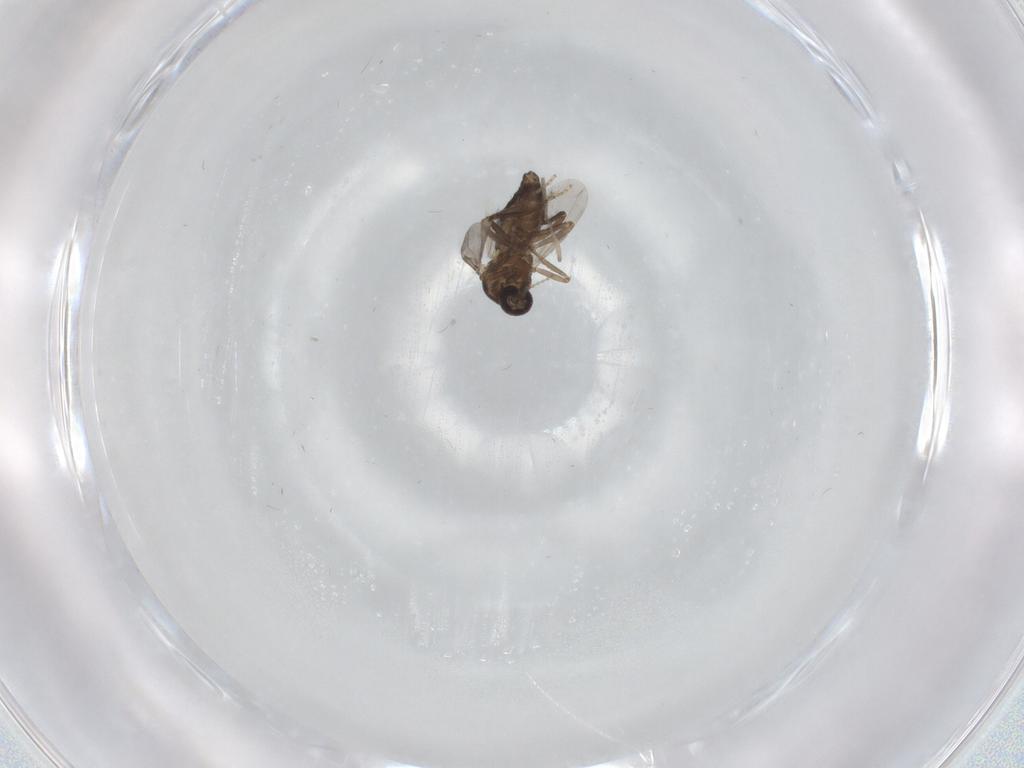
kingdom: Animalia
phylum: Arthropoda
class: Insecta
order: Diptera
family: Ceratopogonidae
